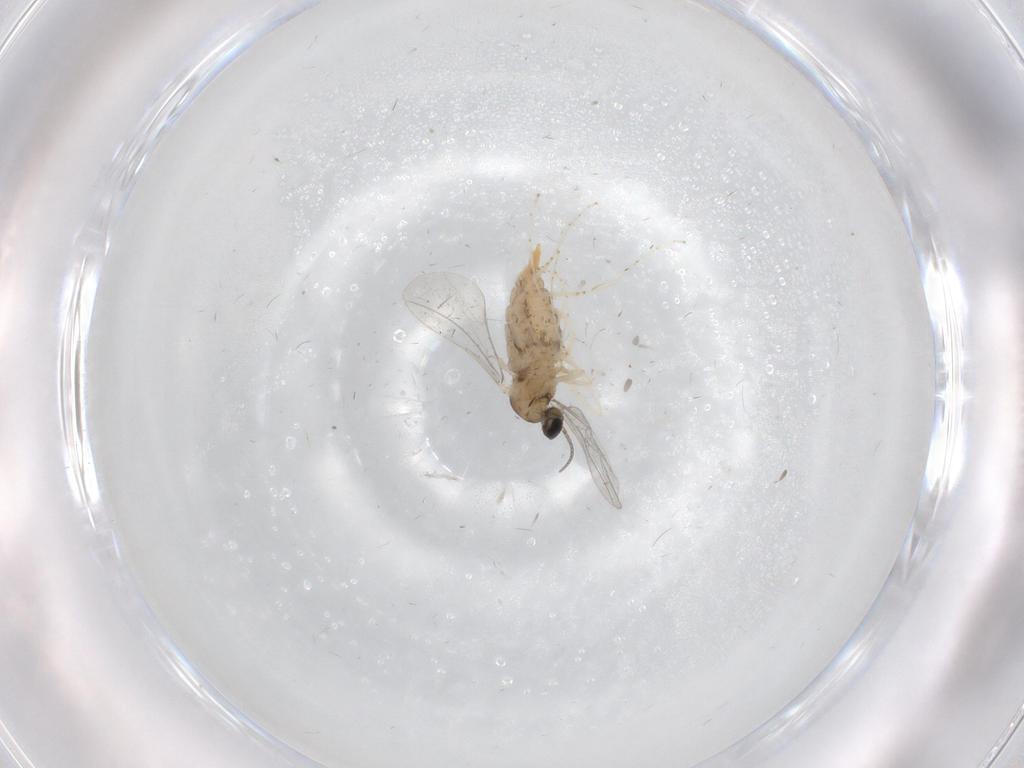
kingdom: Animalia
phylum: Arthropoda
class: Insecta
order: Diptera
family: Cecidomyiidae
